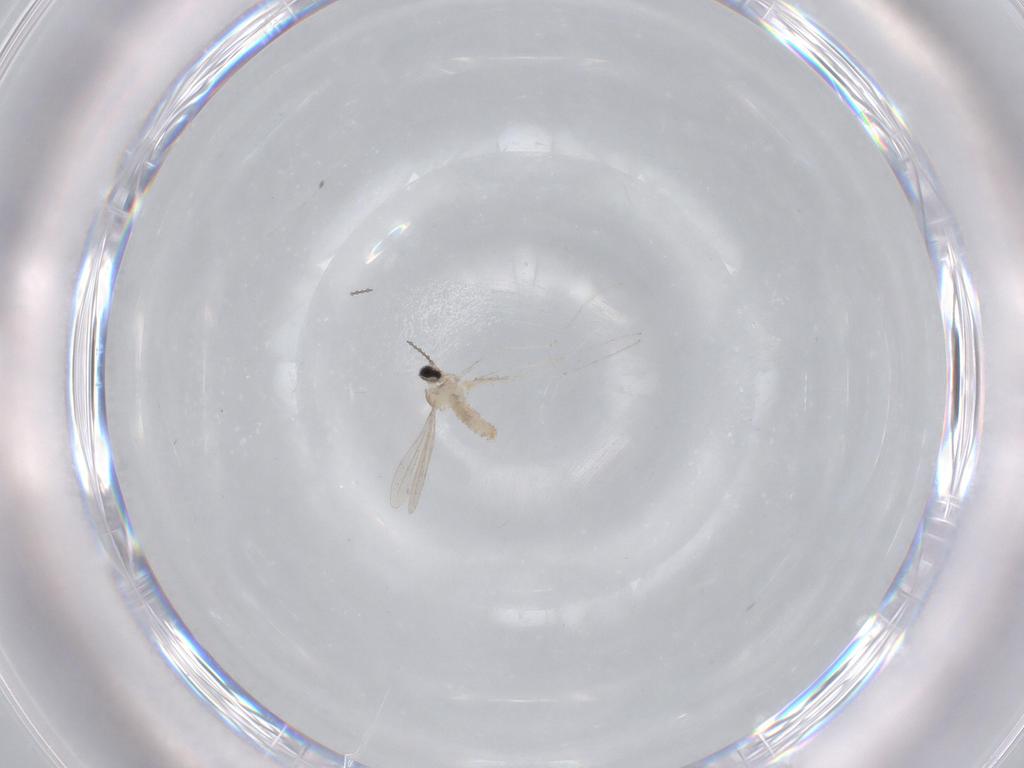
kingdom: Animalia
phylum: Arthropoda
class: Insecta
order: Diptera
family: Cecidomyiidae
